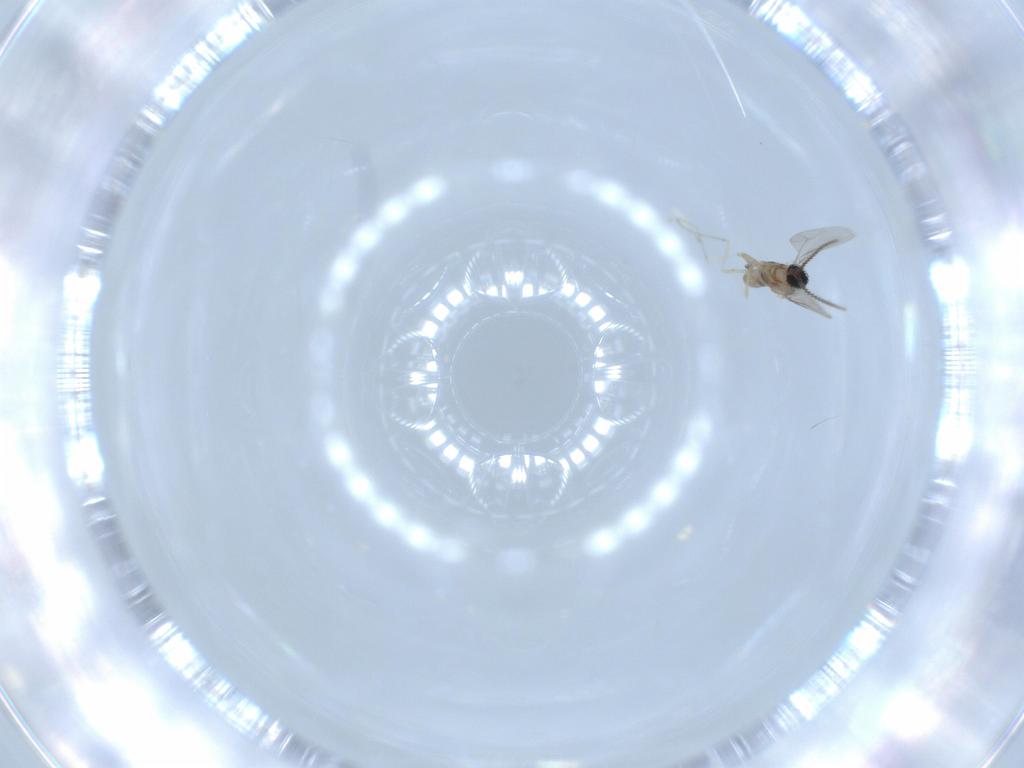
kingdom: Animalia
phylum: Arthropoda
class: Insecta
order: Diptera
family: Cecidomyiidae
